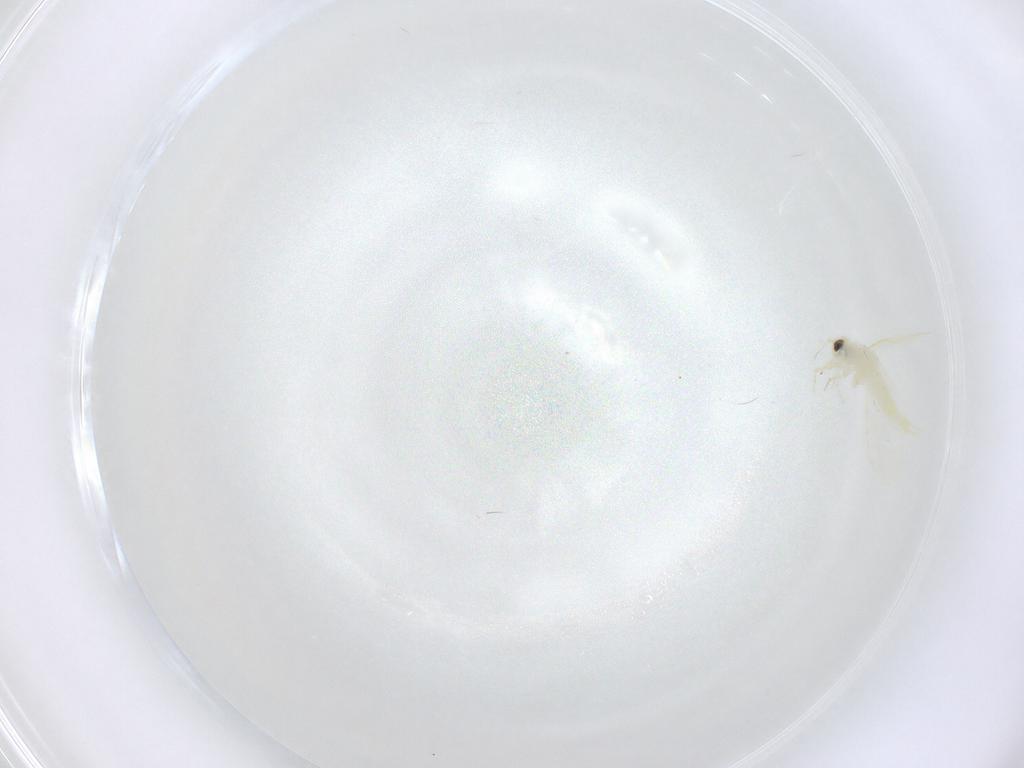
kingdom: Animalia
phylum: Arthropoda
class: Insecta
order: Hemiptera
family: Aleyrodidae
